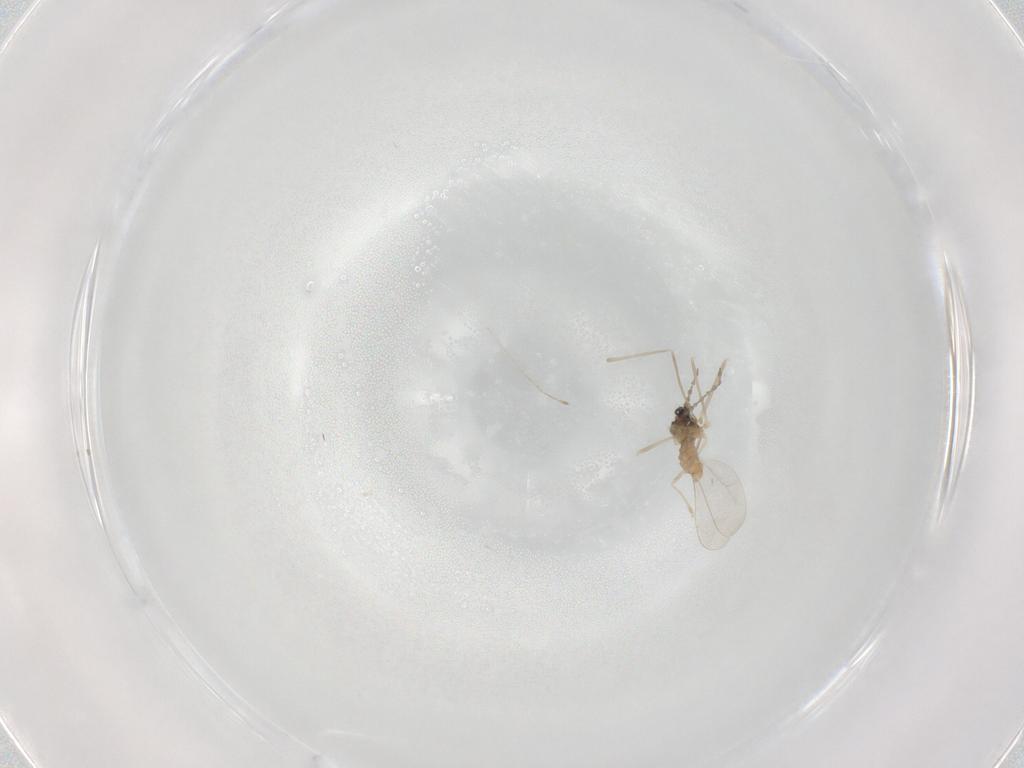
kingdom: Animalia
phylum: Arthropoda
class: Insecta
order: Diptera
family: Cecidomyiidae
